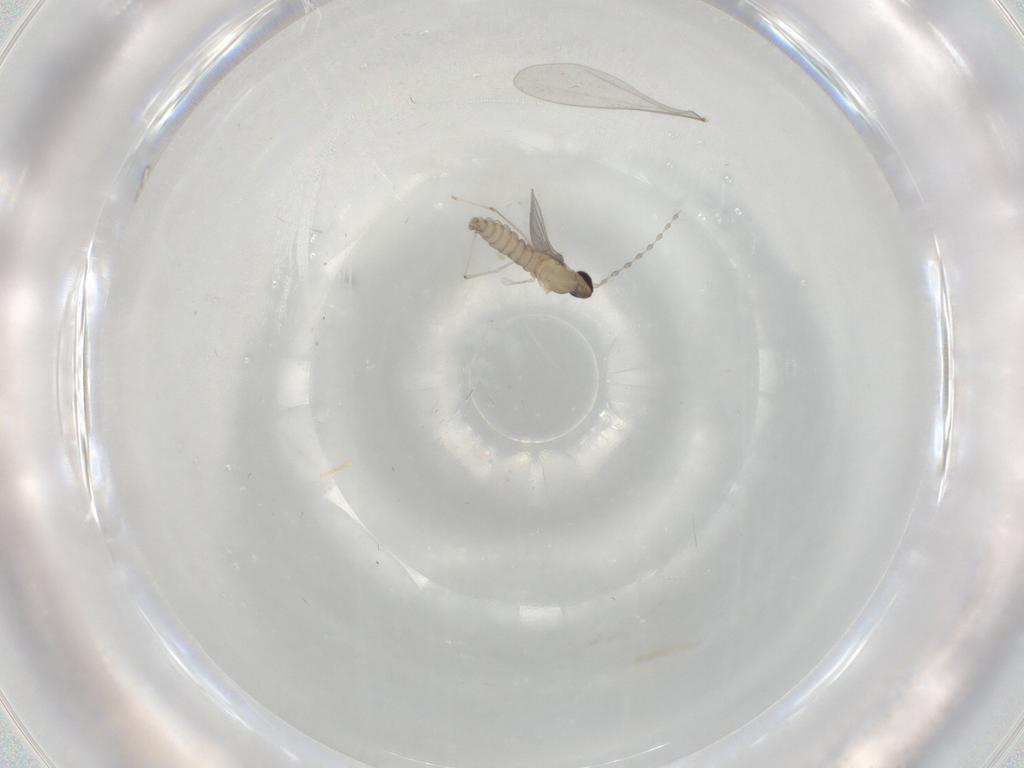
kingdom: Animalia
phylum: Arthropoda
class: Insecta
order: Diptera
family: Cecidomyiidae
